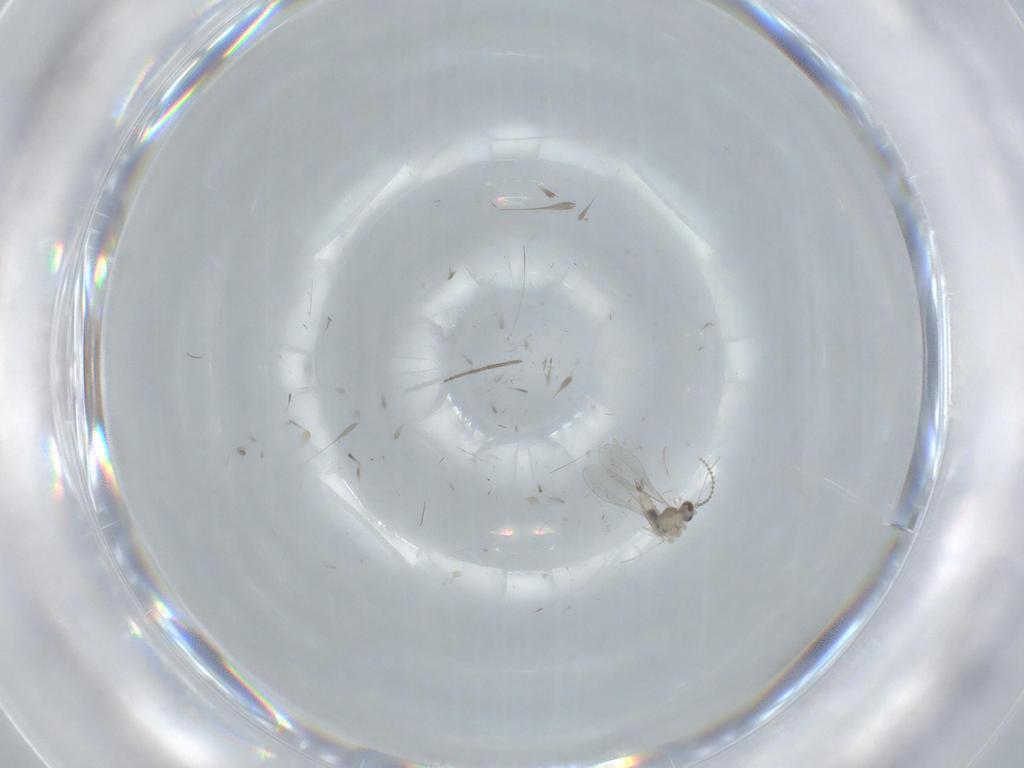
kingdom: Animalia
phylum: Arthropoda
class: Insecta
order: Diptera
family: Cecidomyiidae
